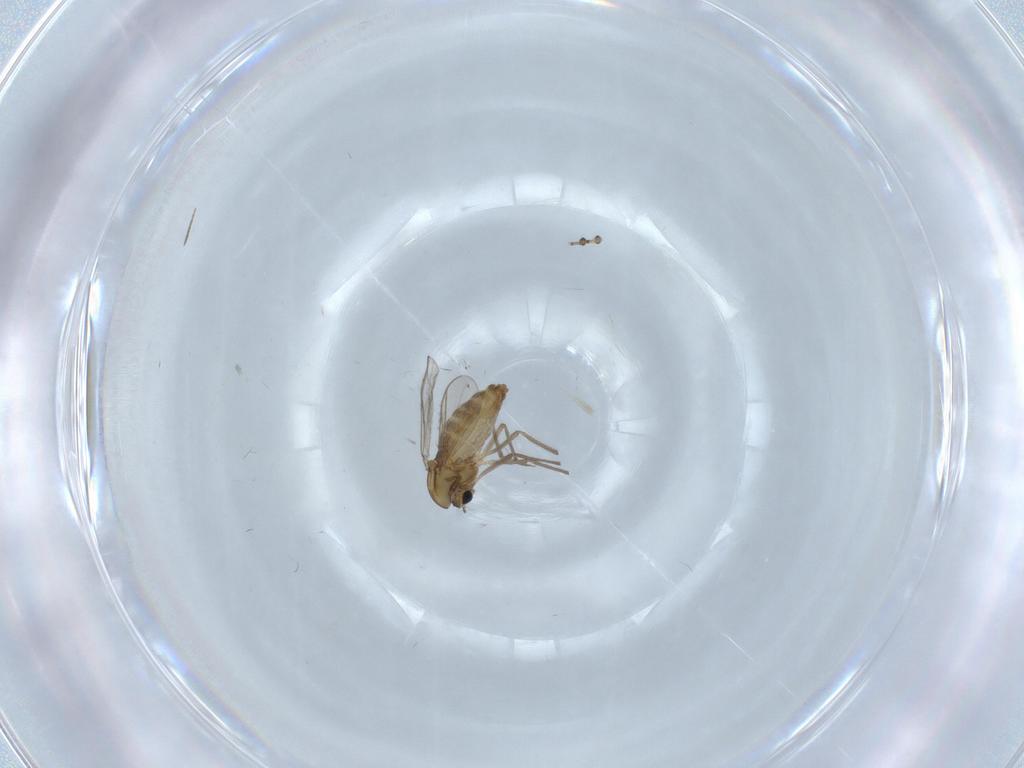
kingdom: Animalia
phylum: Arthropoda
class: Insecta
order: Diptera
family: Chironomidae
